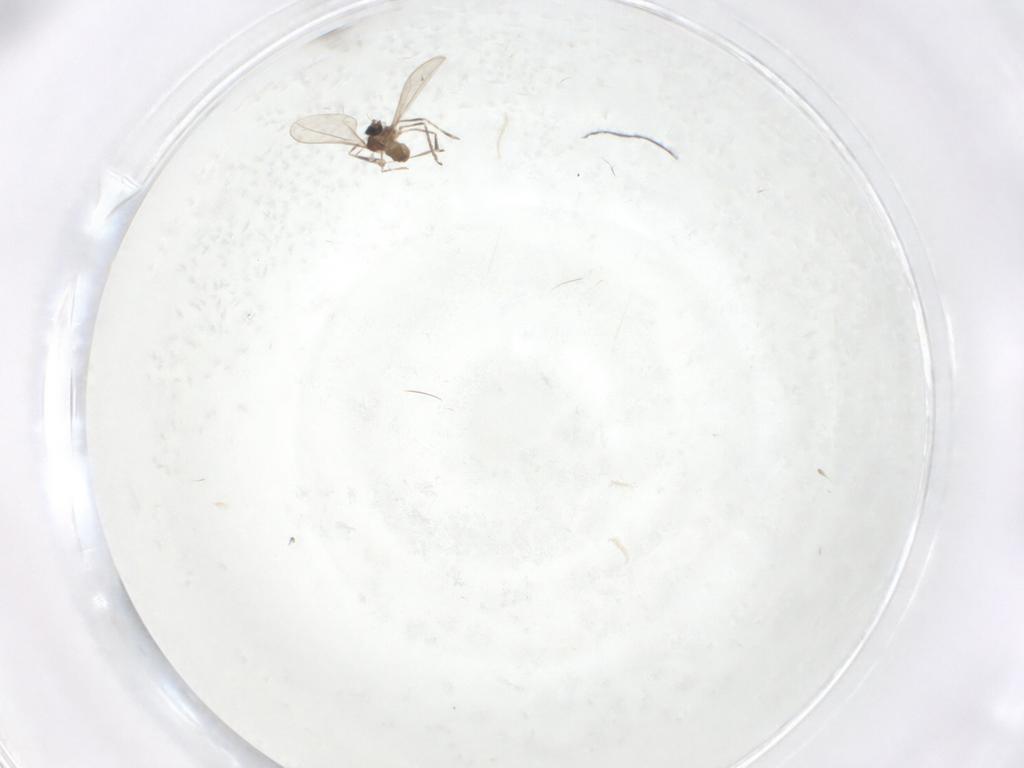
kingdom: Animalia
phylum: Arthropoda
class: Insecta
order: Diptera
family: Cecidomyiidae
